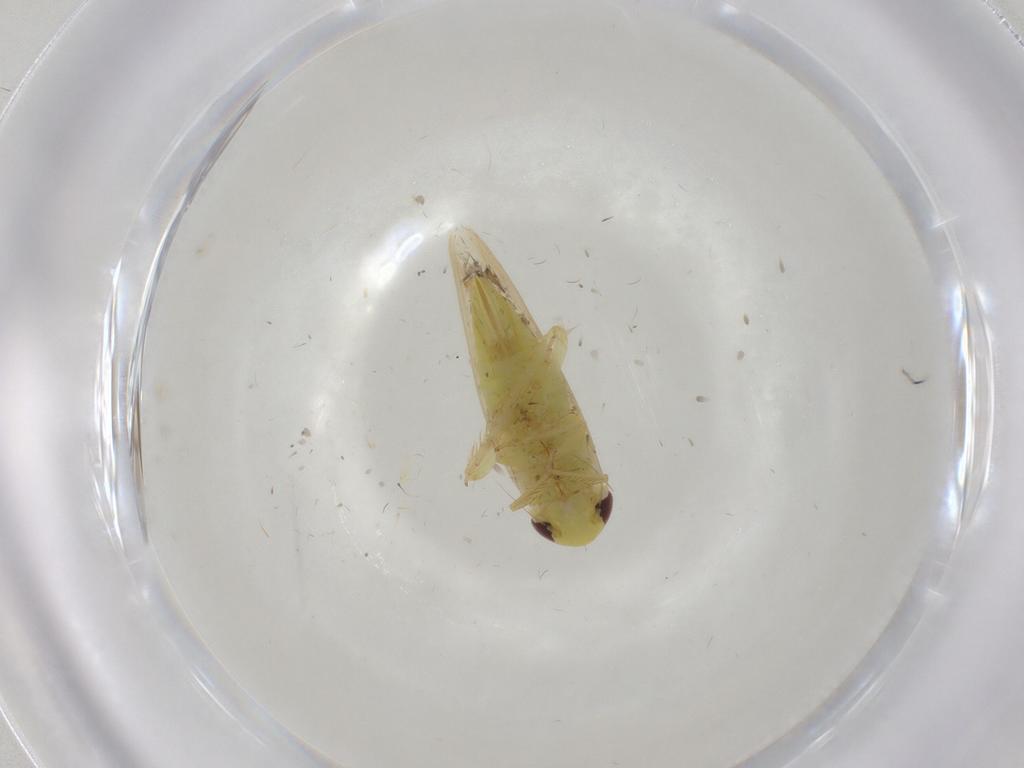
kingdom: Animalia
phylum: Arthropoda
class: Insecta
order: Hemiptera
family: Cicadellidae
